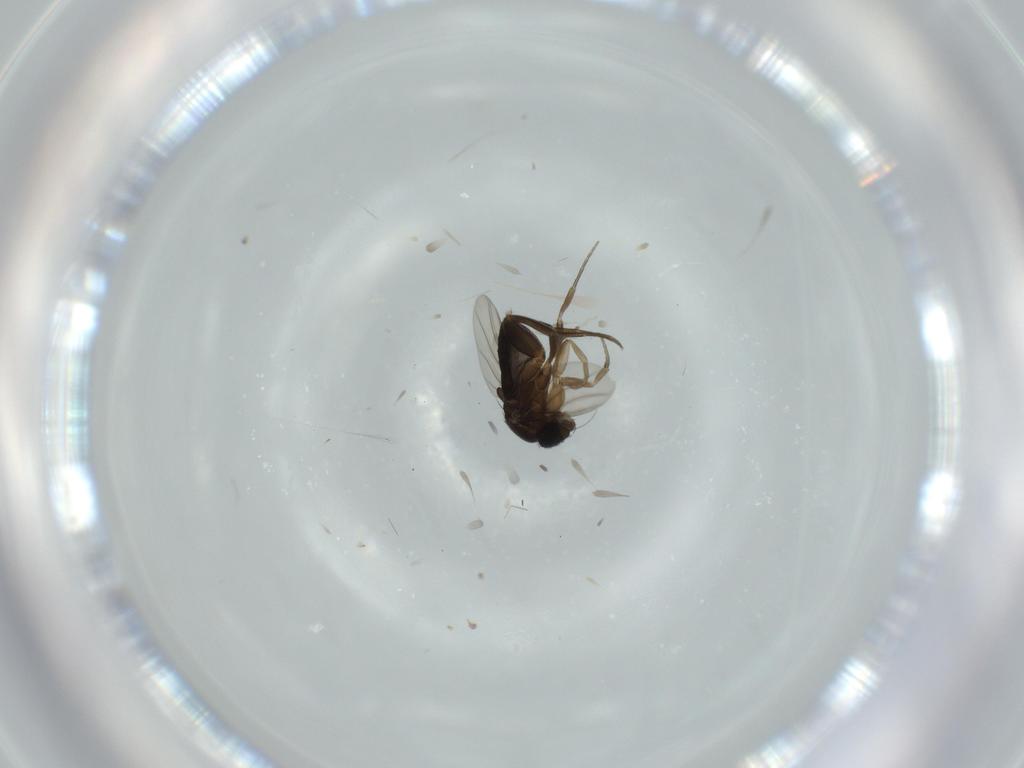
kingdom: Animalia
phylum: Arthropoda
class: Insecta
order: Diptera
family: Phoridae
